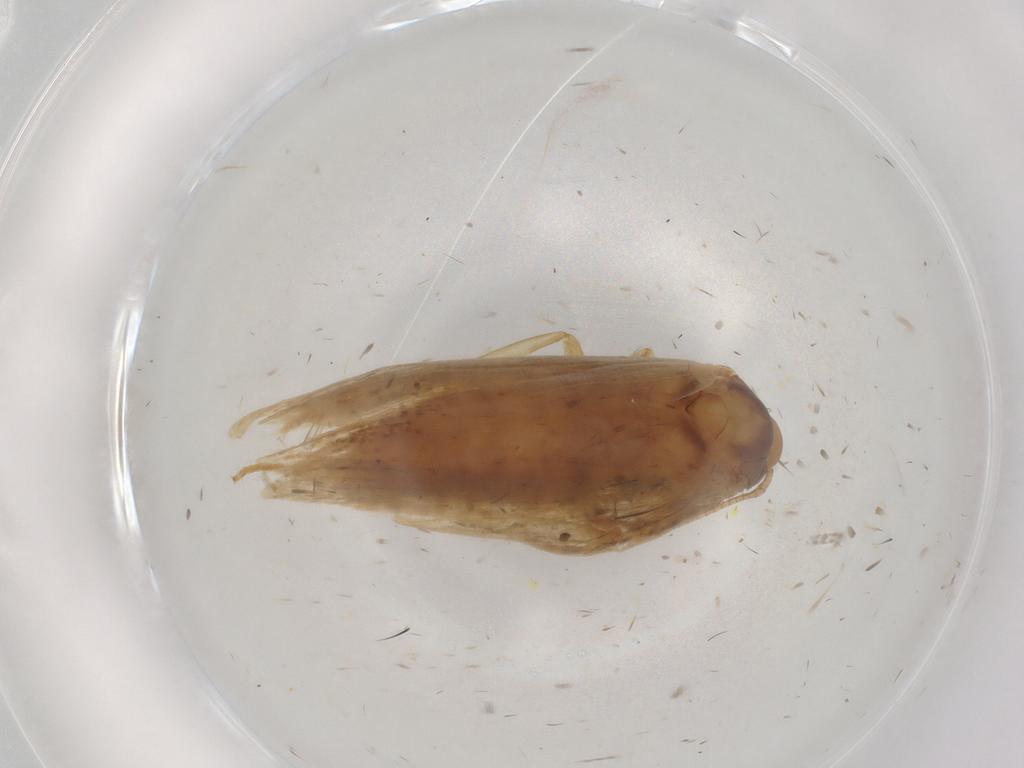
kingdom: Animalia
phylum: Arthropoda
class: Insecta
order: Lepidoptera
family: Depressariidae
